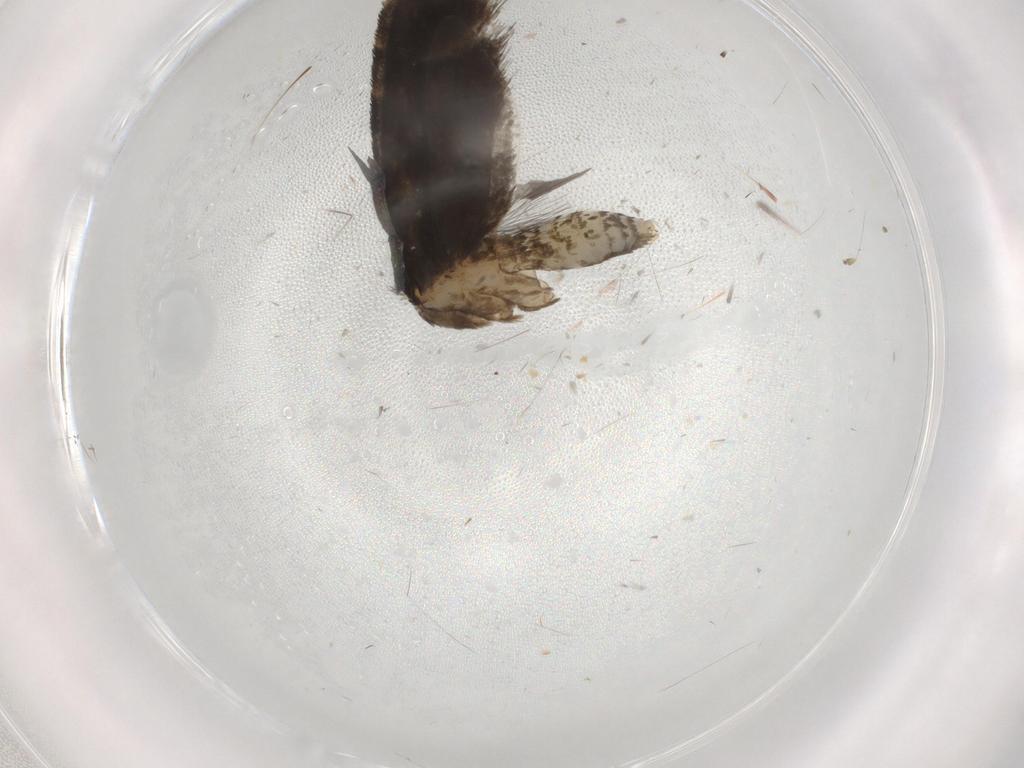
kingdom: Animalia
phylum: Arthropoda
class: Insecta
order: Lepidoptera
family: Psychidae
